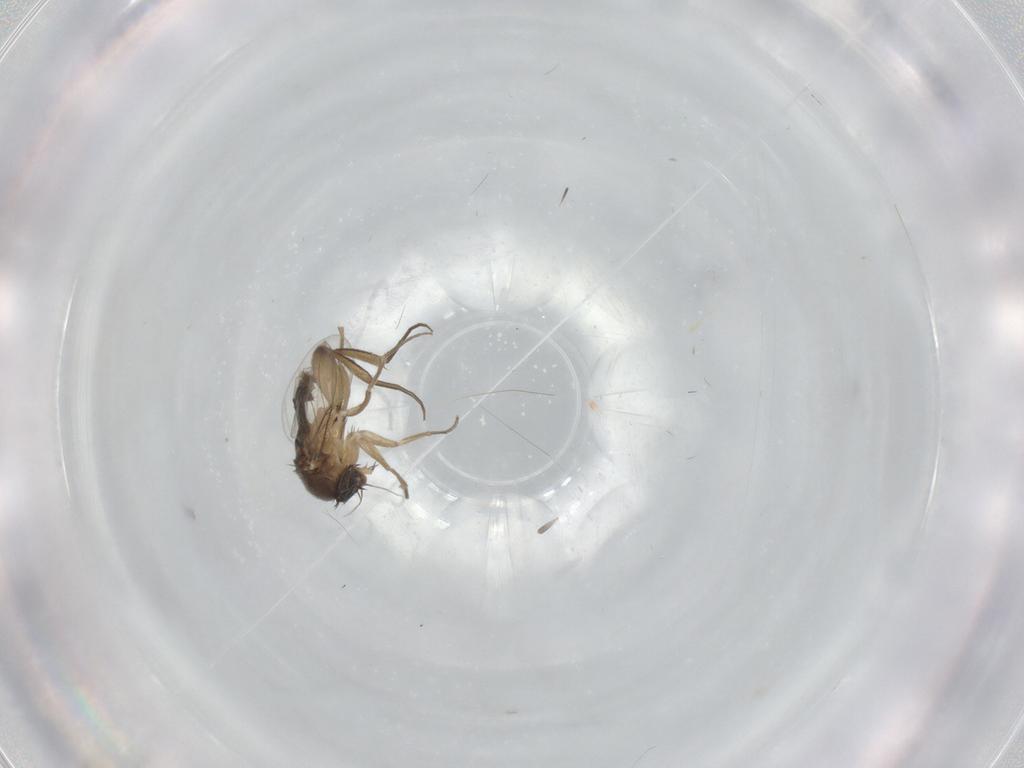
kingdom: Animalia
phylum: Arthropoda
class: Insecta
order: Diptera
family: Phoridae
